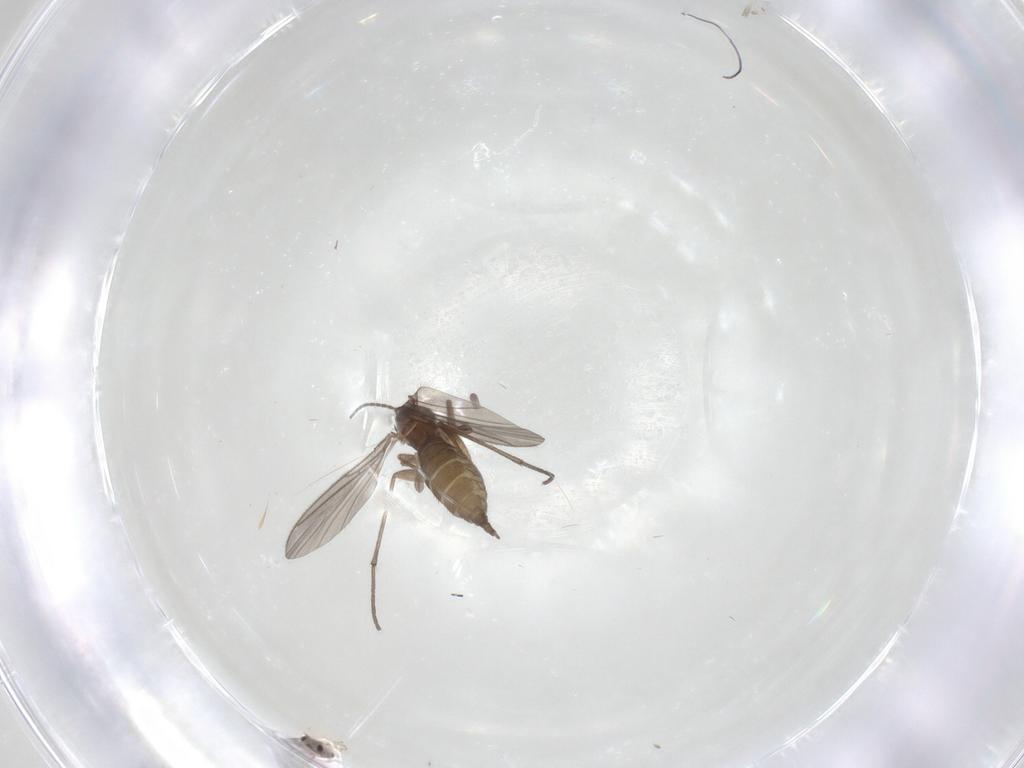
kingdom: Animalia
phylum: Arthropoda
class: Insecta
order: Diptera
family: Sciaridae
